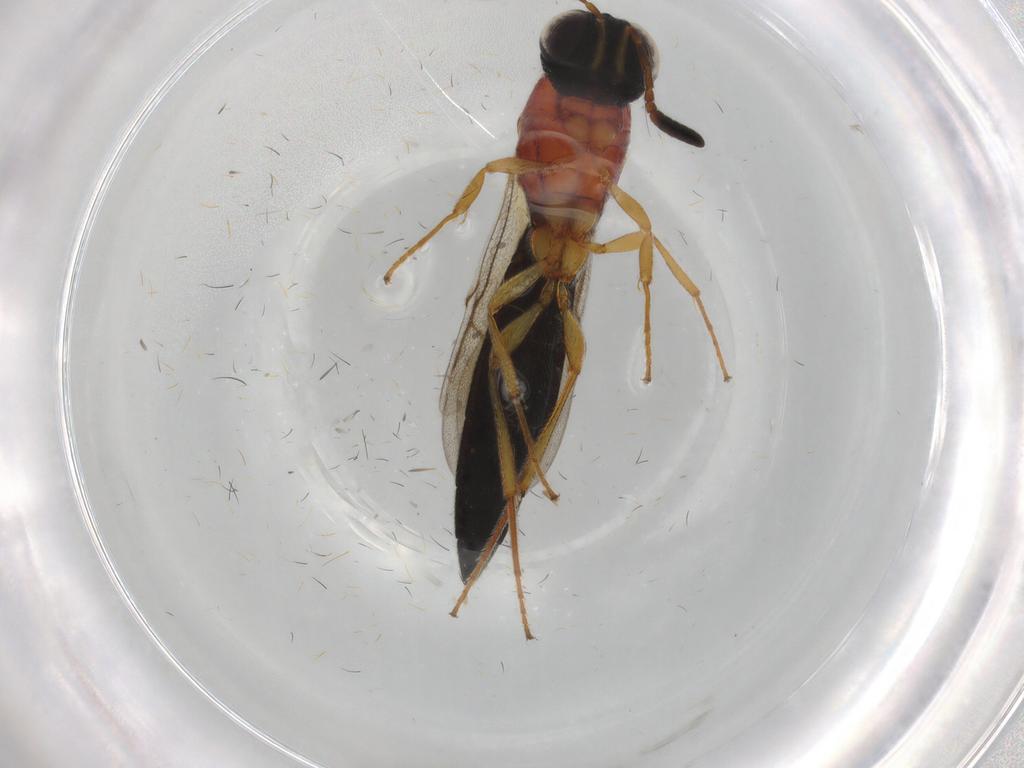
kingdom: Animalia
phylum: Arthropoda
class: Insecta
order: Hymenoptera
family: Scelionidae
